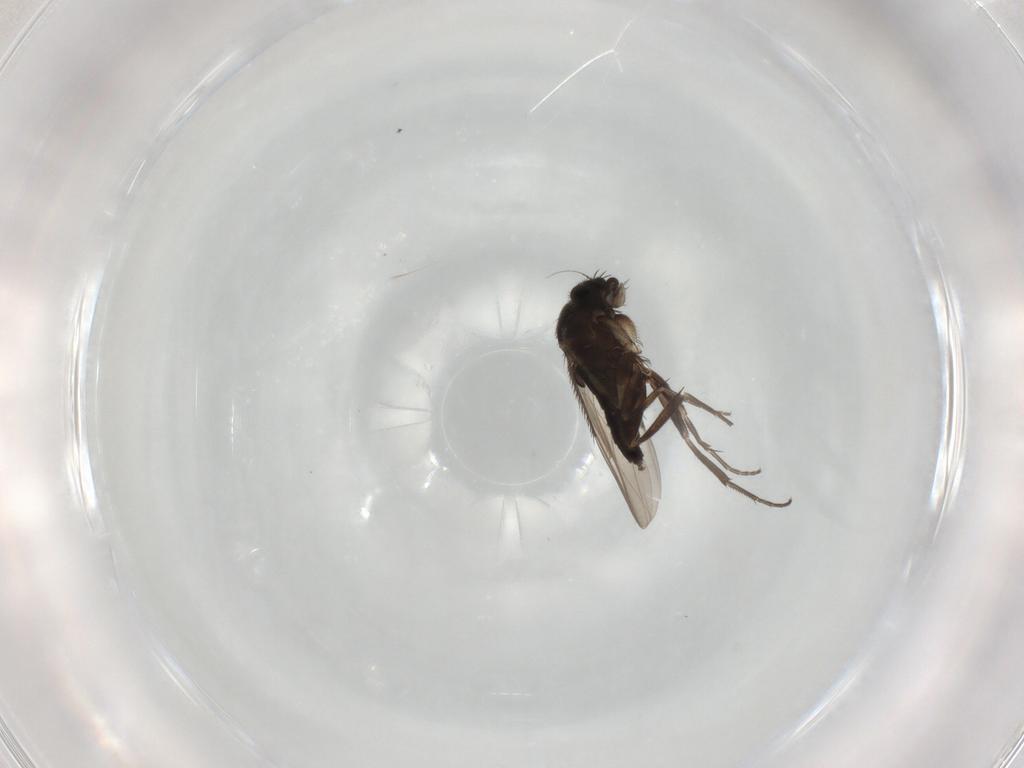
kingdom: Animalia
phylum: Arthropoda
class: Insecta
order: Diptera
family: Phoridae
